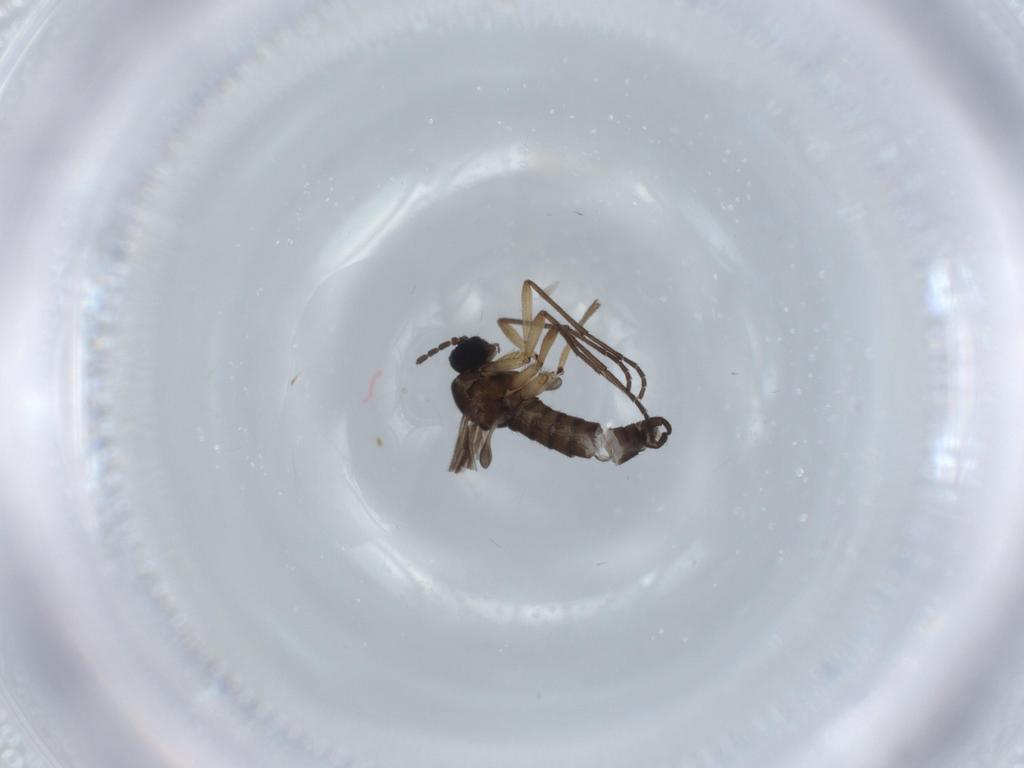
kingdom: Animalia
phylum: Arthropoda
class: Insecta
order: Diptera
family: Sciaridae
